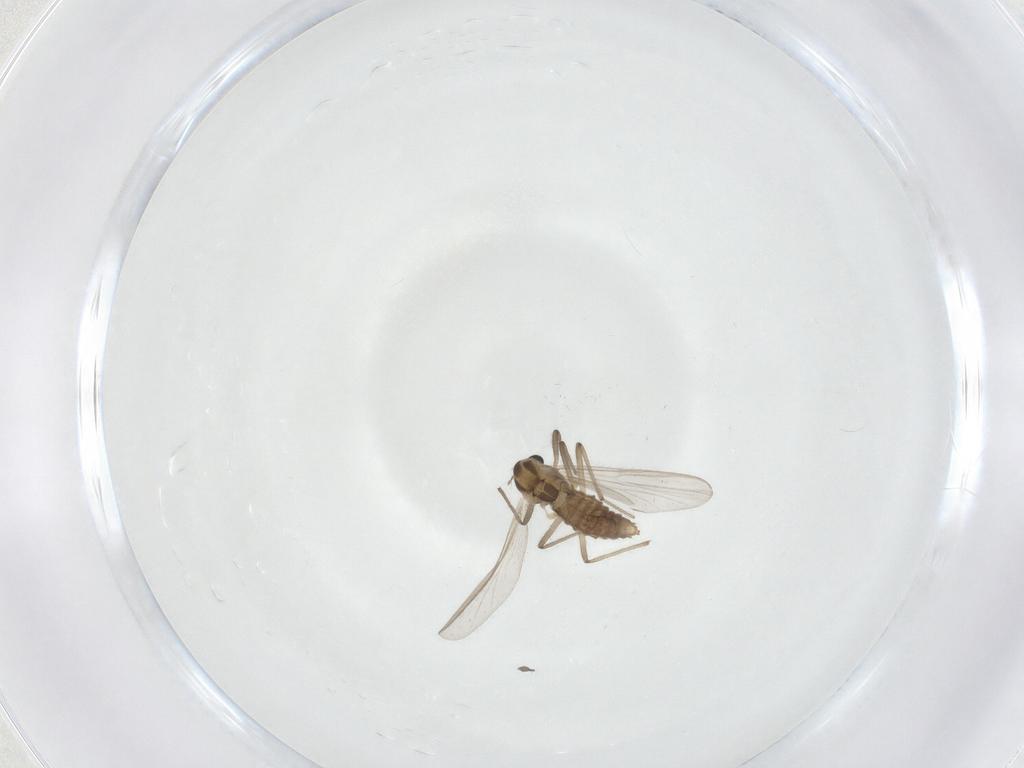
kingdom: Animalia
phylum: Arthropoda
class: Insecta
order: Diptera
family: Chironomidae
